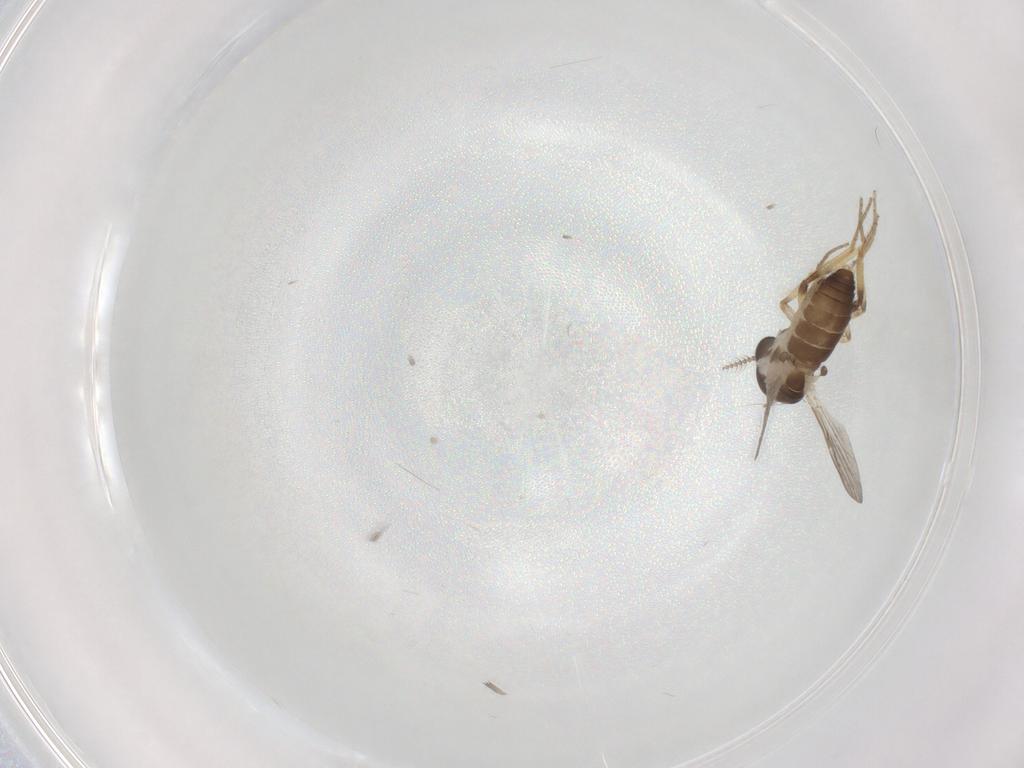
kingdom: Animalia
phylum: Arthropoda
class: Insecta
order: Diptera
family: Ceratopogonidae
